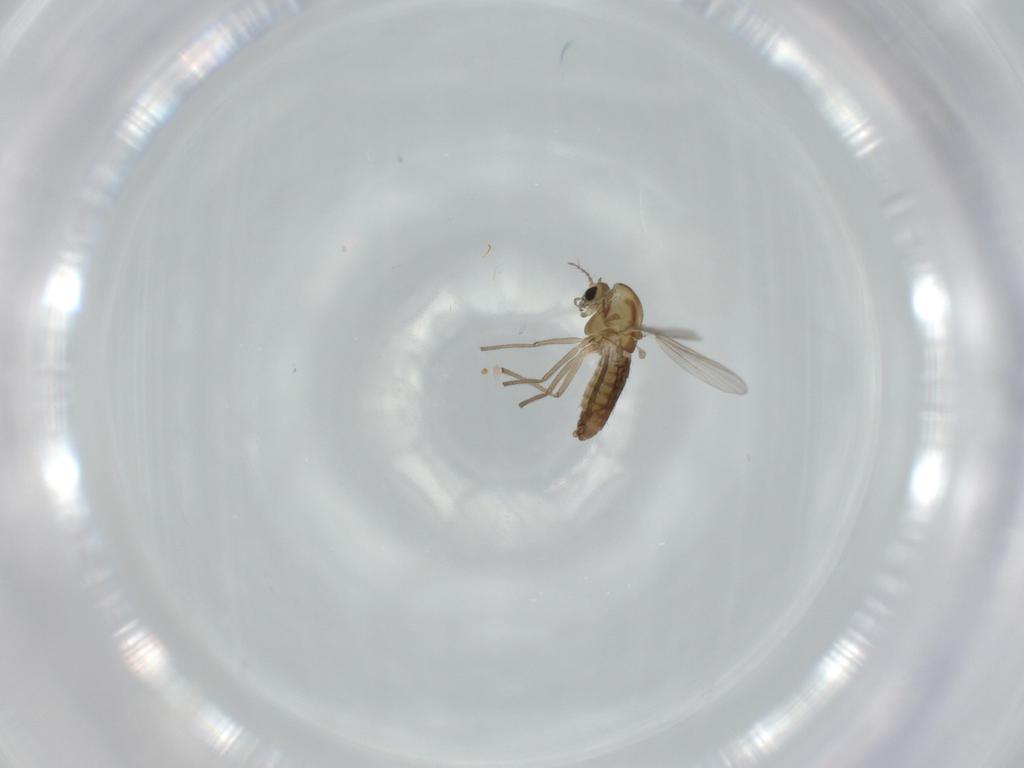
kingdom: Animalia
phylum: Arthropoda
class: Insecta
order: Diptera
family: Chironomidae
